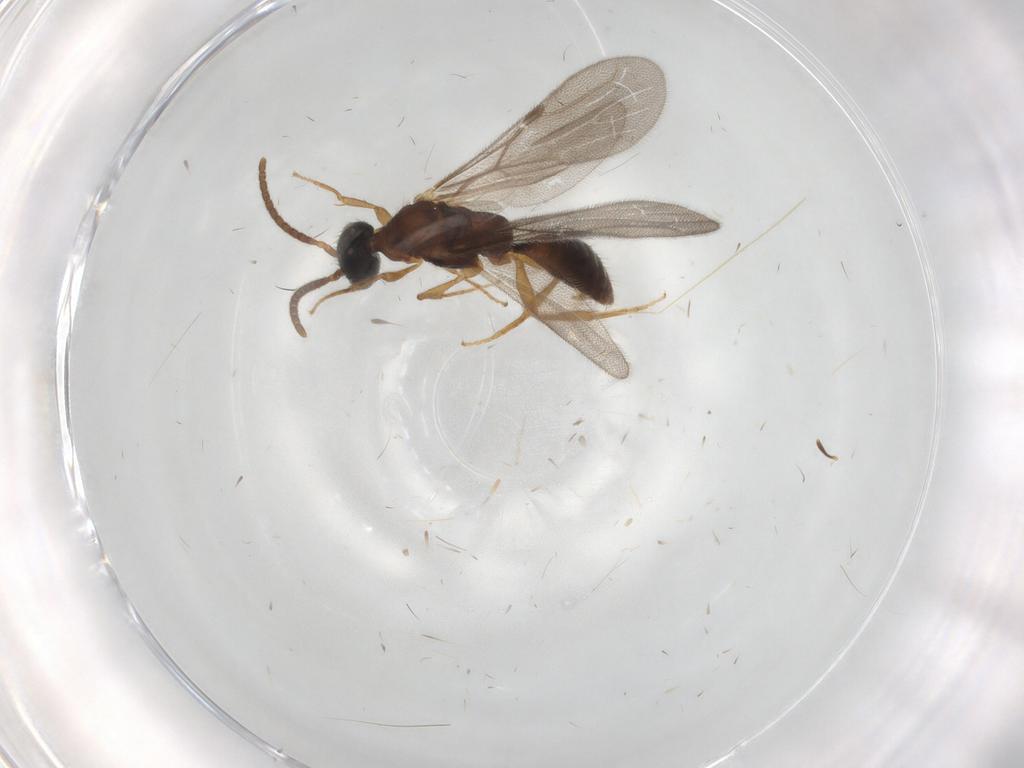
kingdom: Animalia
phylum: Arthropoda
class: Insecta
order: Hymenoptera
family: Bethylidae
